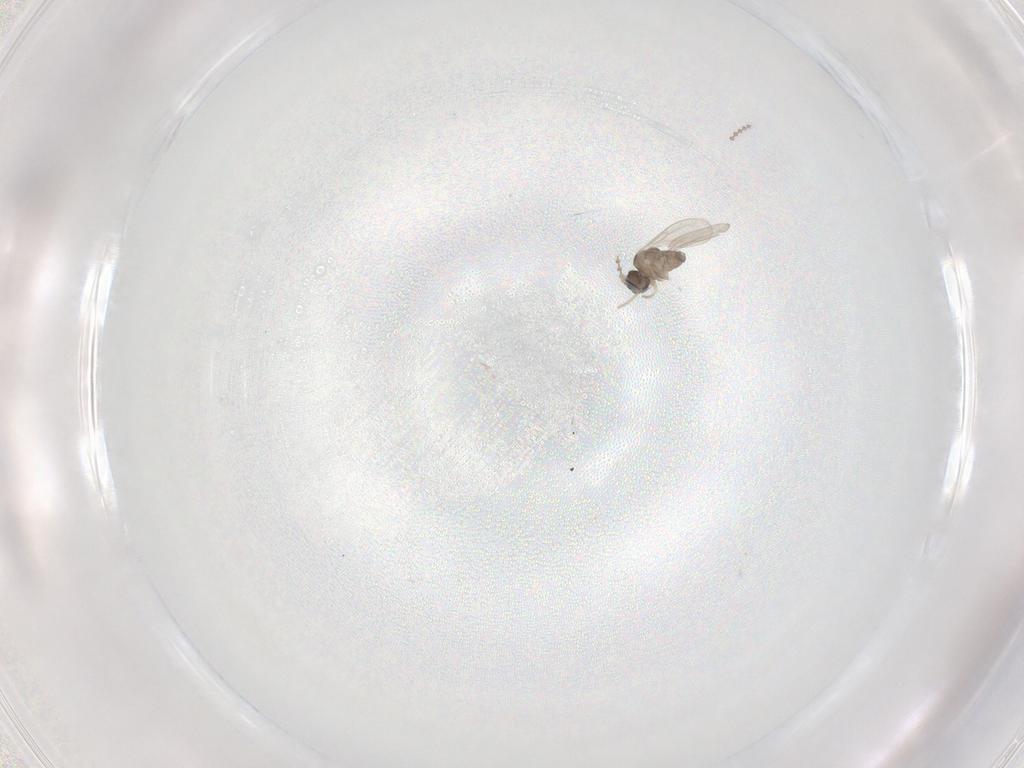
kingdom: Animalia
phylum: Arthropoda
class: Insecta
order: Diptera
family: Cecidomyiidae
